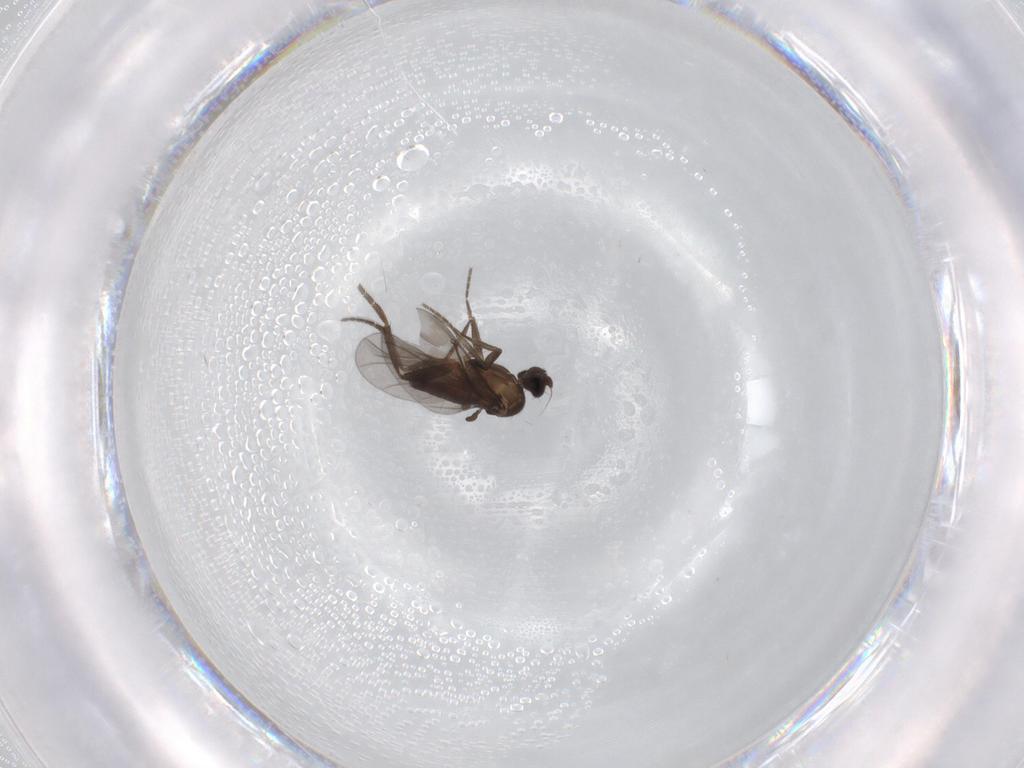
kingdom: Animalia
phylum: Arthropoda
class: Insecta
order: Diptera
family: Phoridae
